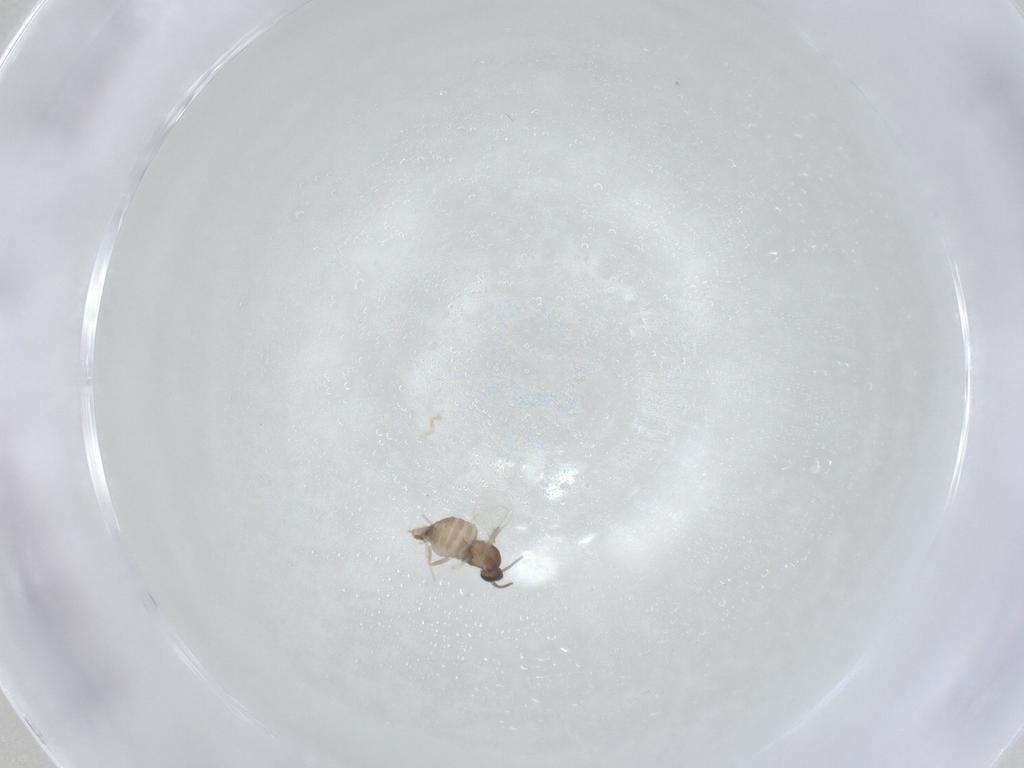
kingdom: Animalia
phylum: Arthropoda
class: Insecta
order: Diptera
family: Cecidomyiidae
